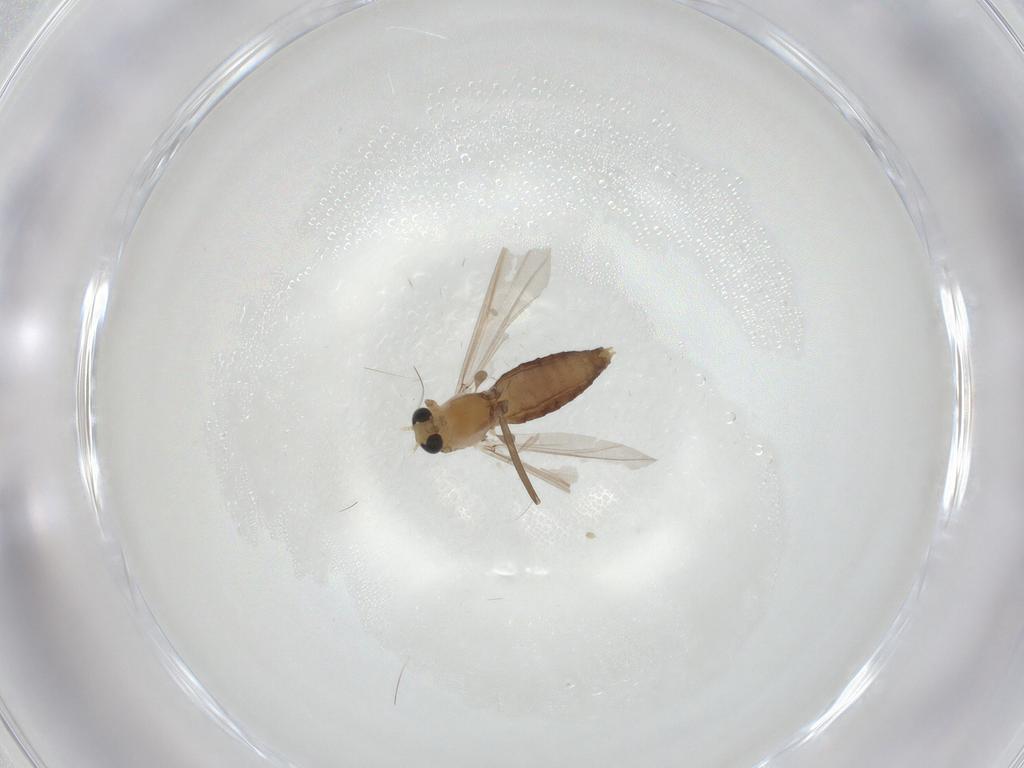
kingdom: Animalia
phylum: Arthropoda
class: Insecta
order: Diptera
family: Chironomidae
